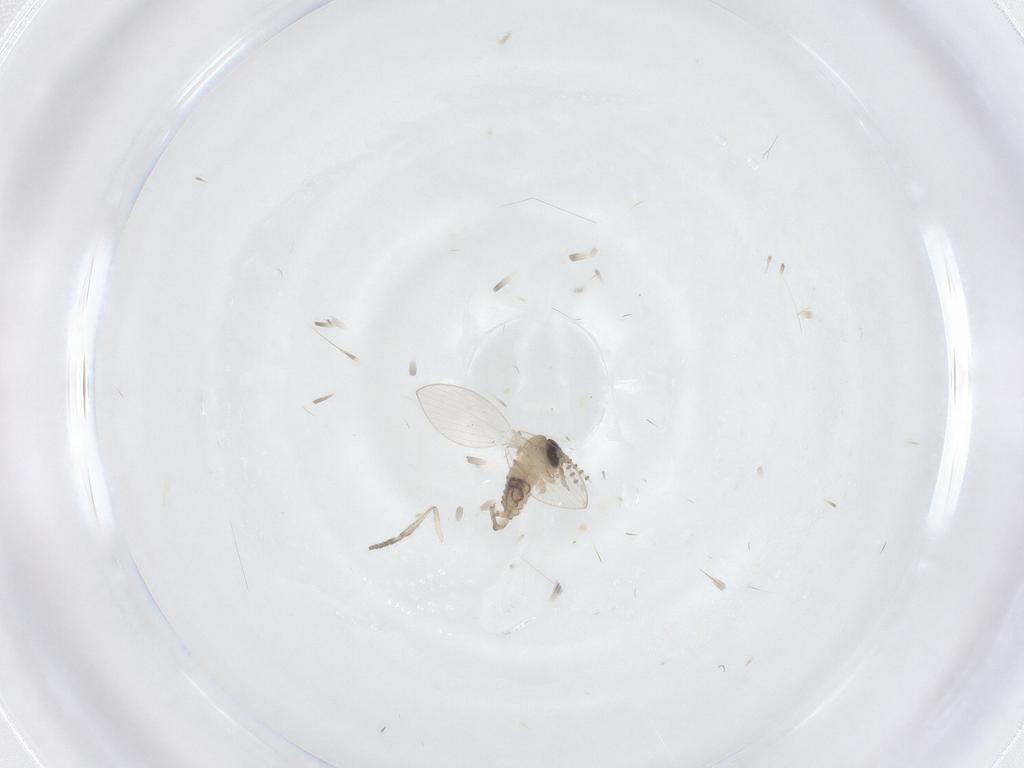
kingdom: Animalia
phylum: Arthropoda
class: Insecta
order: Diptera
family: Psychodidae
